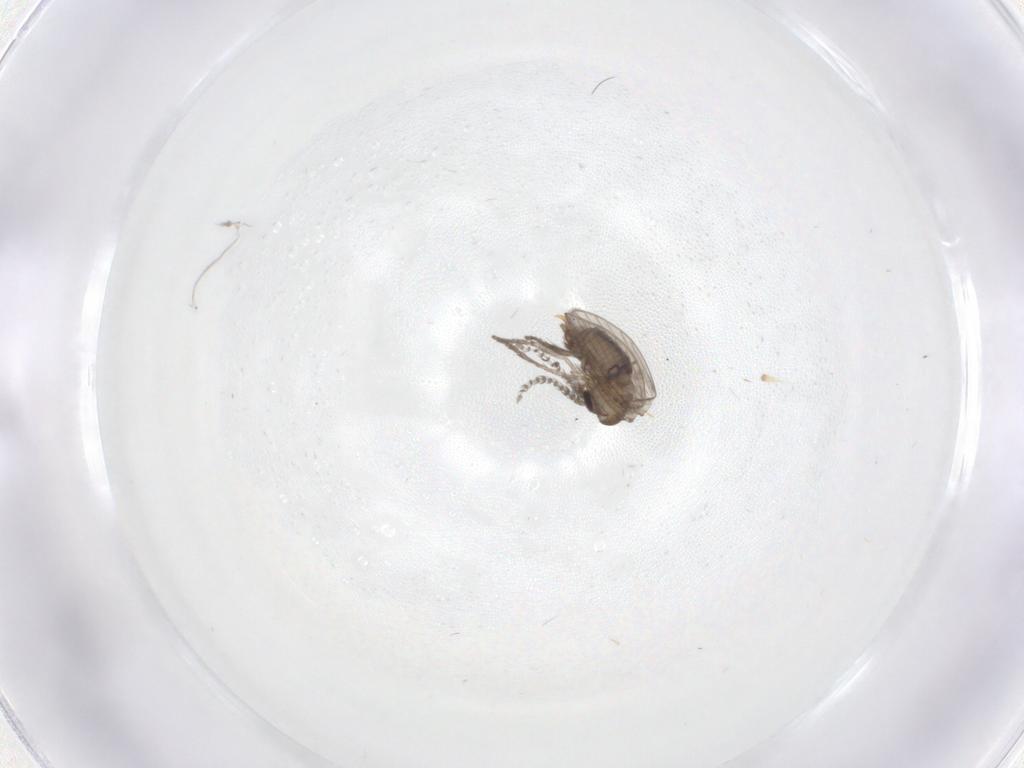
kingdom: Animalia
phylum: Arthropoda
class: Insecta
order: Diptera
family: Psychodidae
